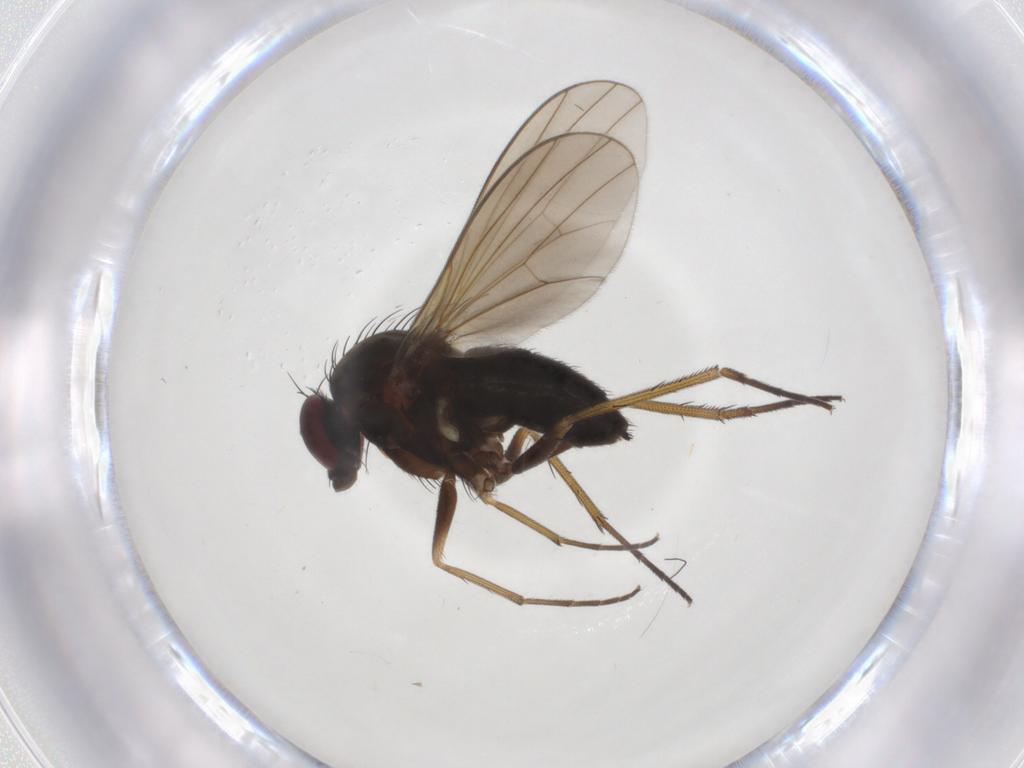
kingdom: Animalia
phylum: Arthropoda
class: Insecta
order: Diptera
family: Dolichopodidae
